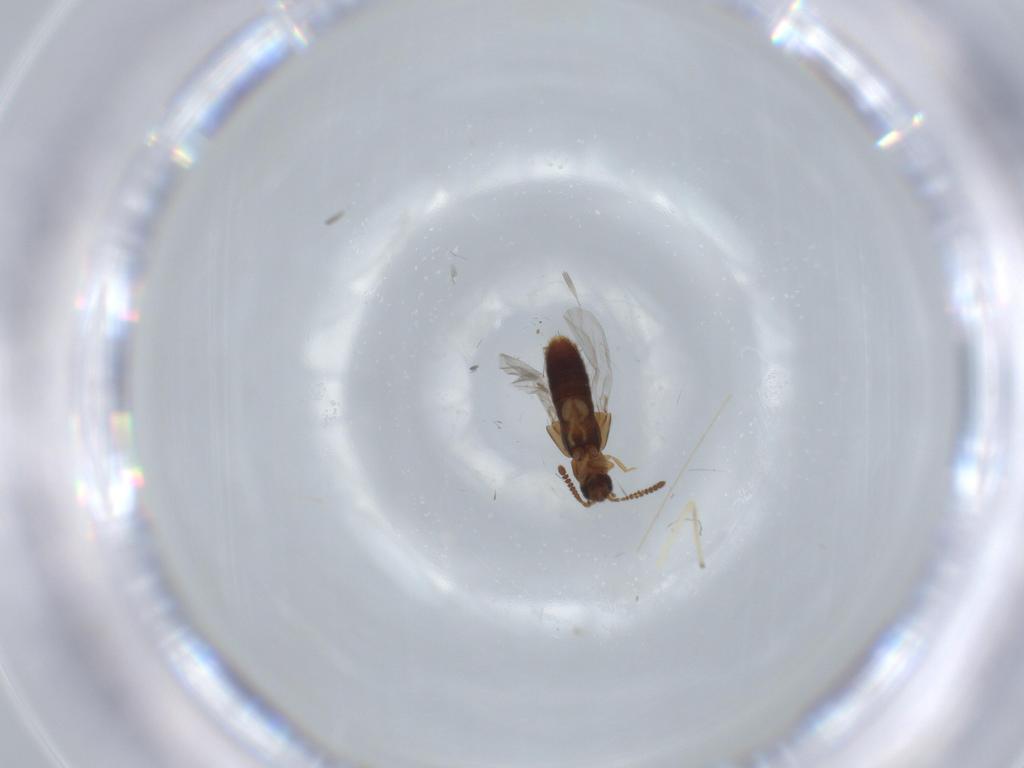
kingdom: Animalia
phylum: Arthropoda
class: Insecta
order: Coleoptera
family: Staphylinidae
